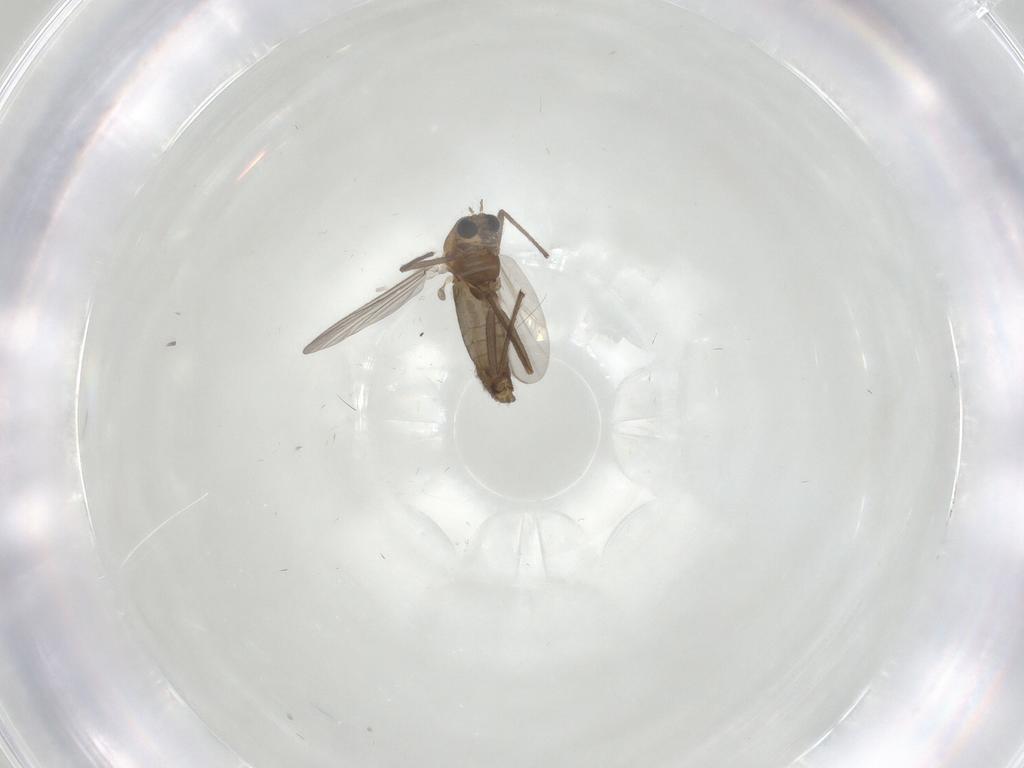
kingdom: Animalia
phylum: Arthropoda
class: Insecta
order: Diptera
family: Chironomidae
